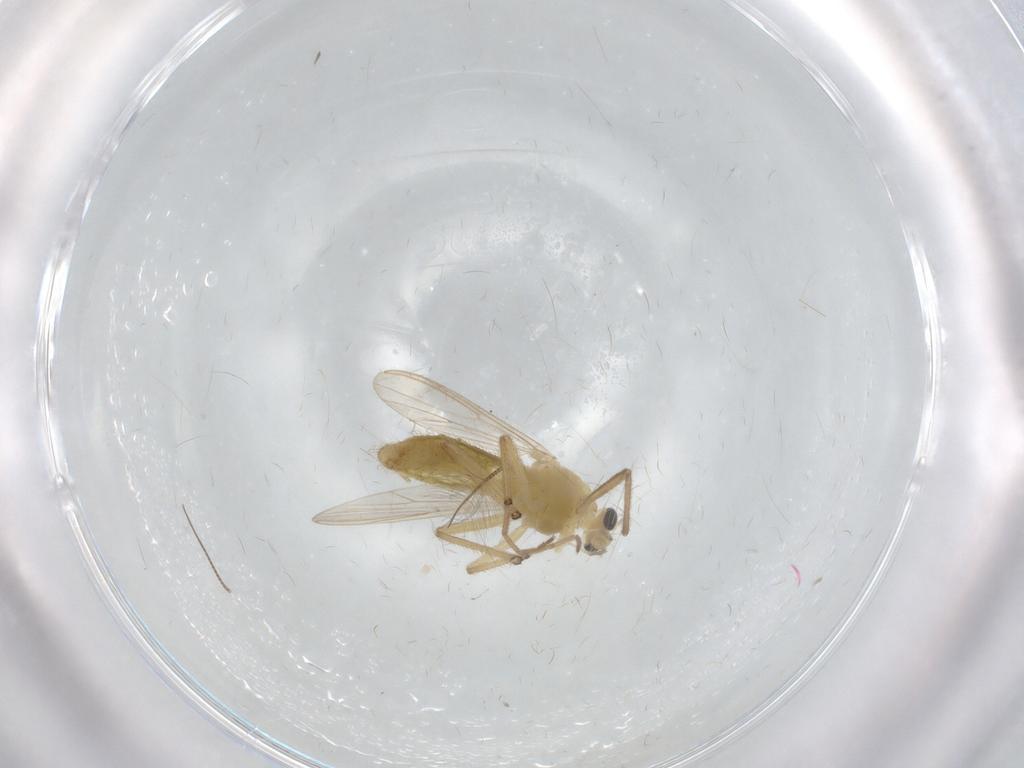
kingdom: Animalia
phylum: Arthropoda
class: Insecta
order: Diptera
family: Chironomidae
